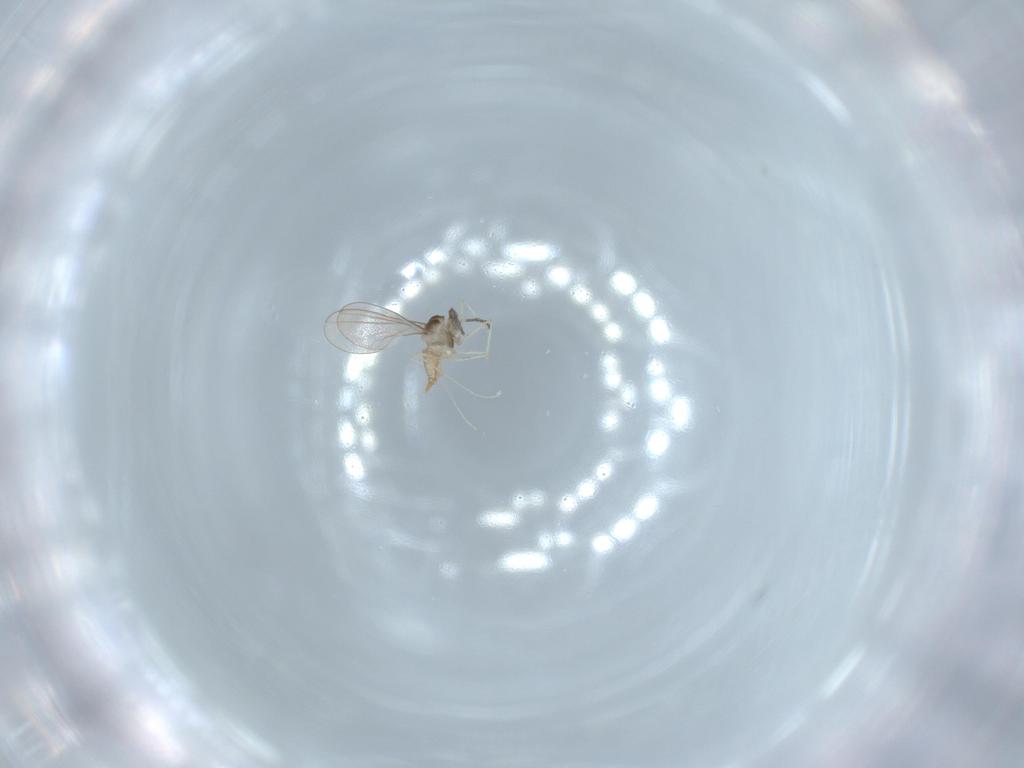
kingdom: Animalia
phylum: Arthropoda
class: Insecta
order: Diptera
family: Cecidomyiidae
